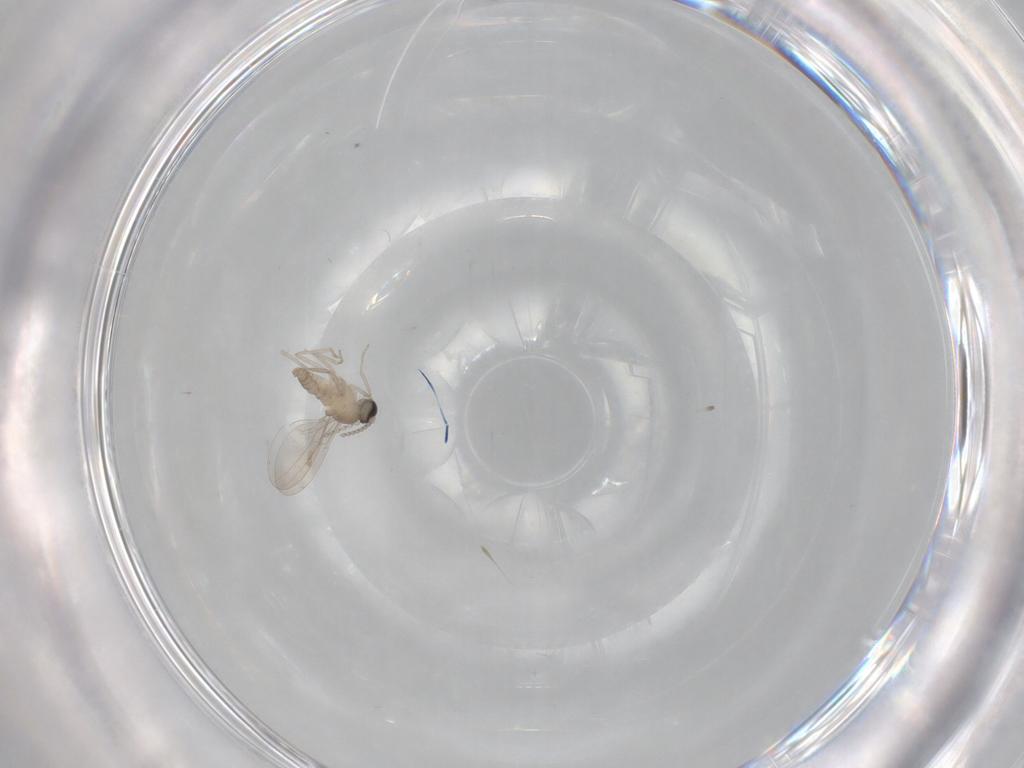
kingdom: Animalia
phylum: Arthropoda
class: Insecta
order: Diptera
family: Cecidomyiidae
